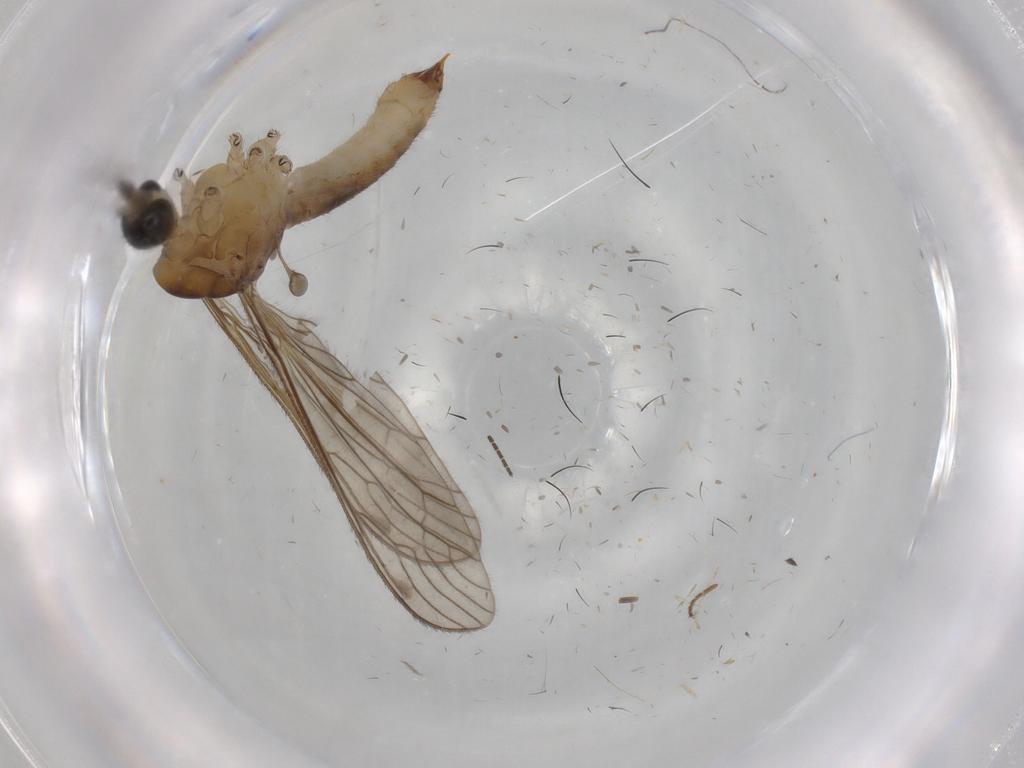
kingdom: Animalia
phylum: Arthropoda
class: Insecta
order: Diptera
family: Dolichopodidae
